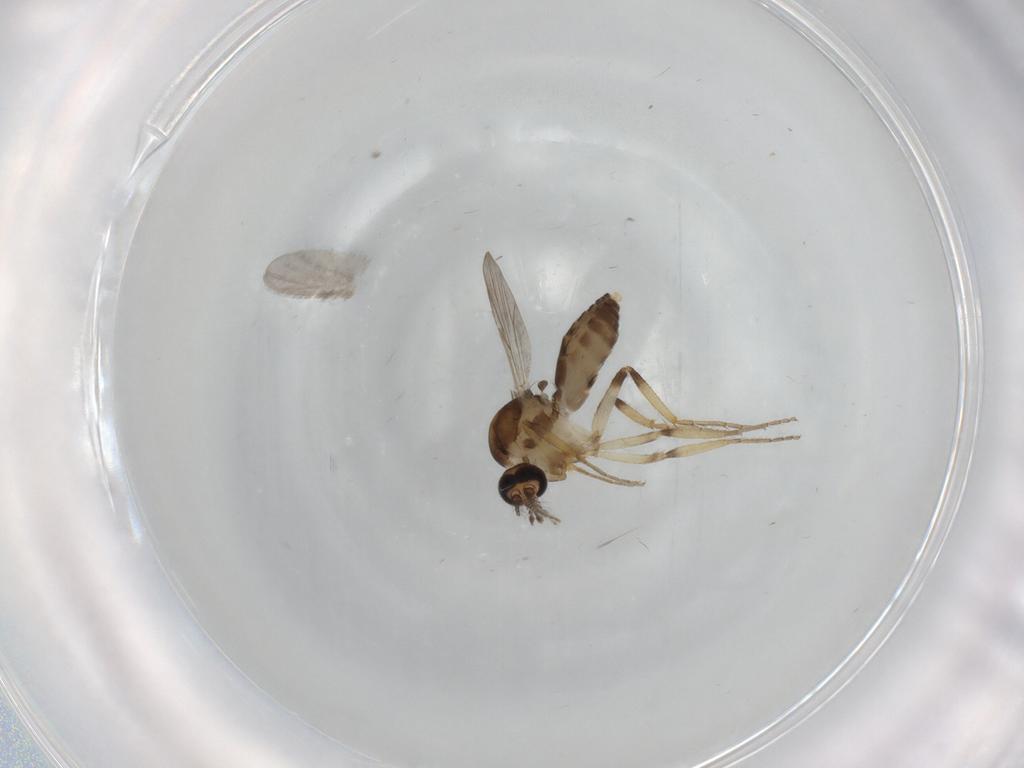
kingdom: Animalia
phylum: Arthropoda
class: Insecta
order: Diptera
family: Ceratopogonidae
